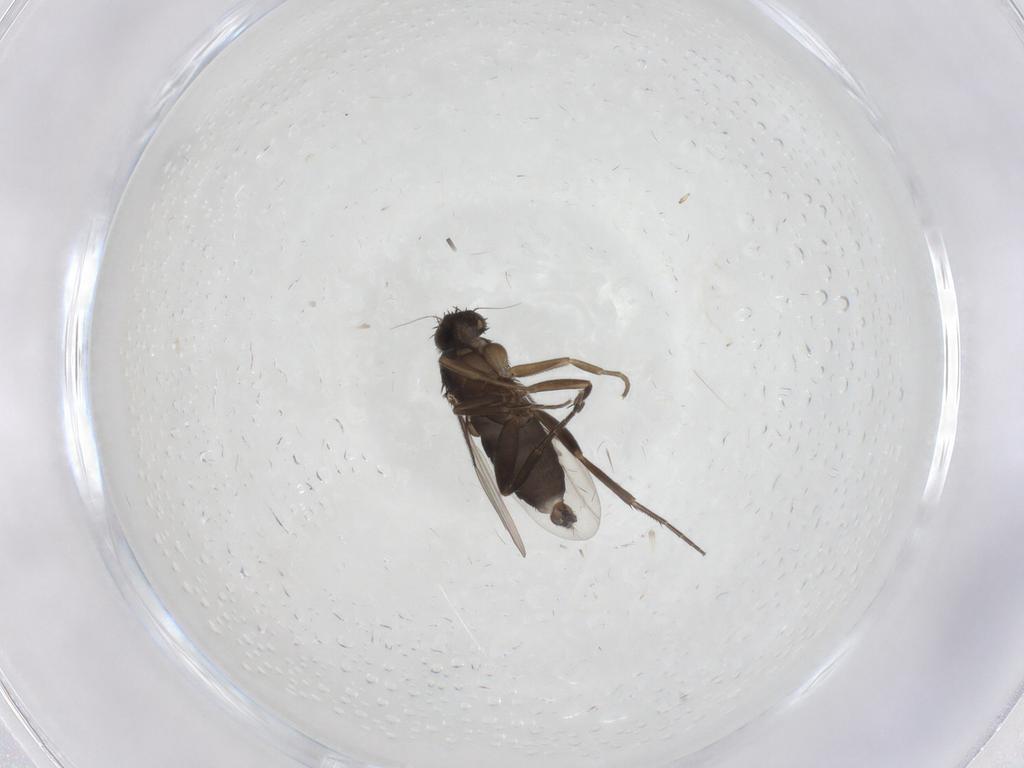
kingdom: Animalia
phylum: Arthropoda
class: Insecta
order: Diptera
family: Phoridae
